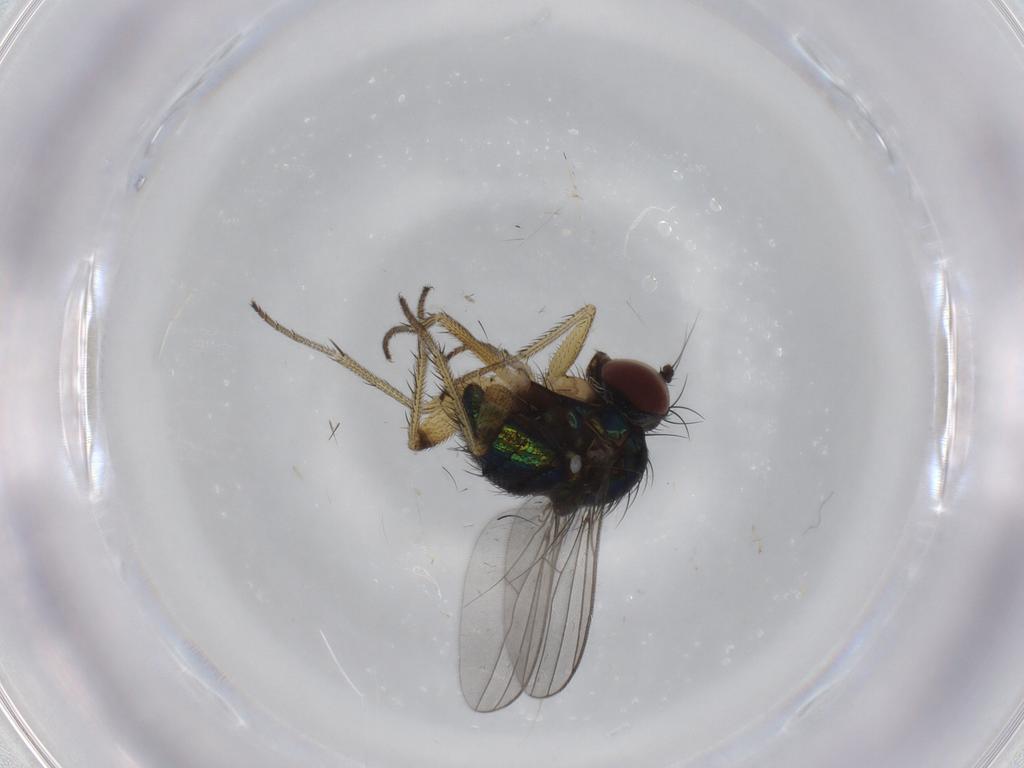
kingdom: Animalia
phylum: Arthropoda
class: Insecta
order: Diptera
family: Dolichopodidae
